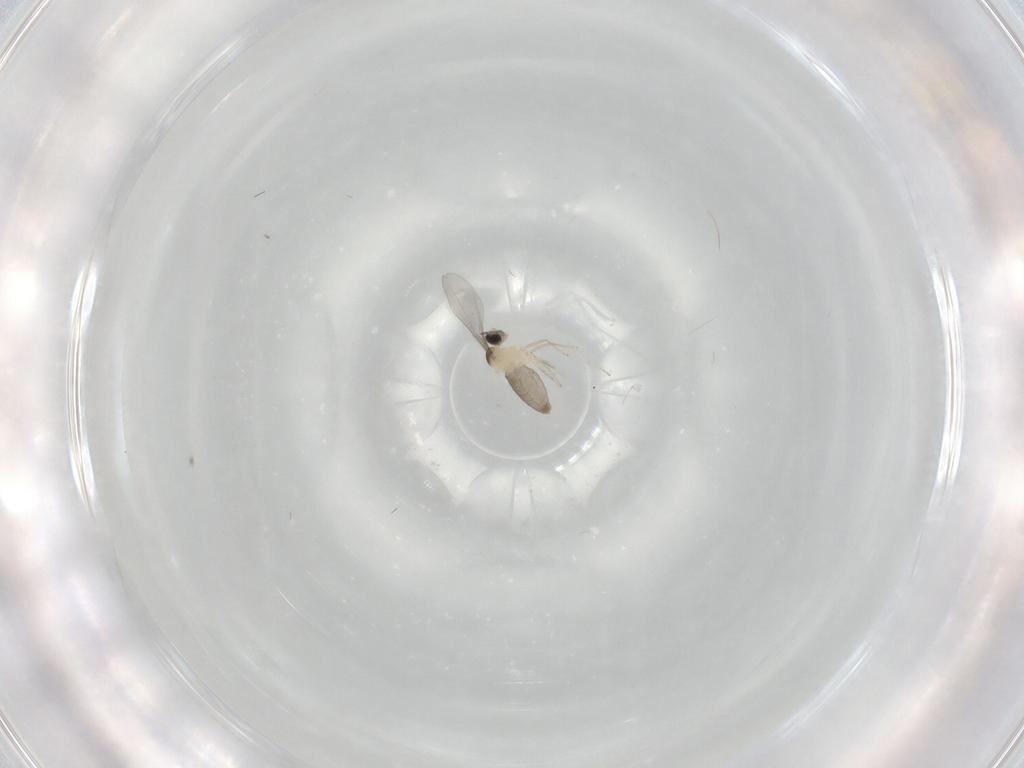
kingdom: Animalia
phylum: Arthropoda
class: Insecta
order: Diptera
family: Cecidomyiidae
